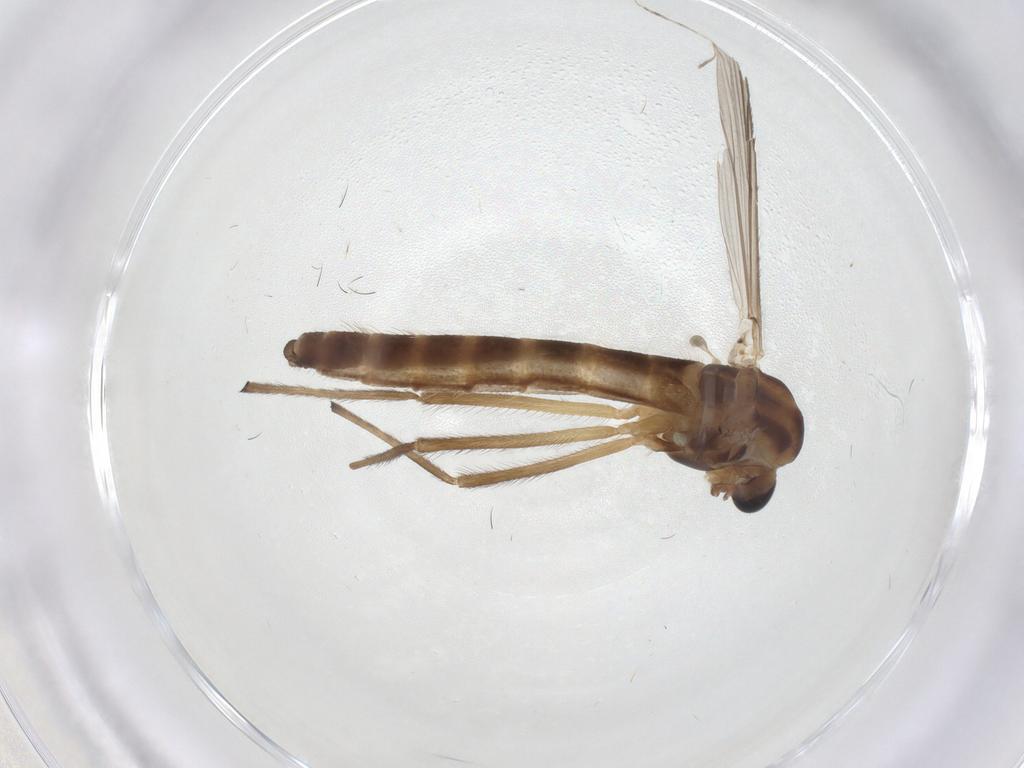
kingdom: Animalia
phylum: Arthropoda
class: Insecta
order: Diptera
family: Chironomidae
